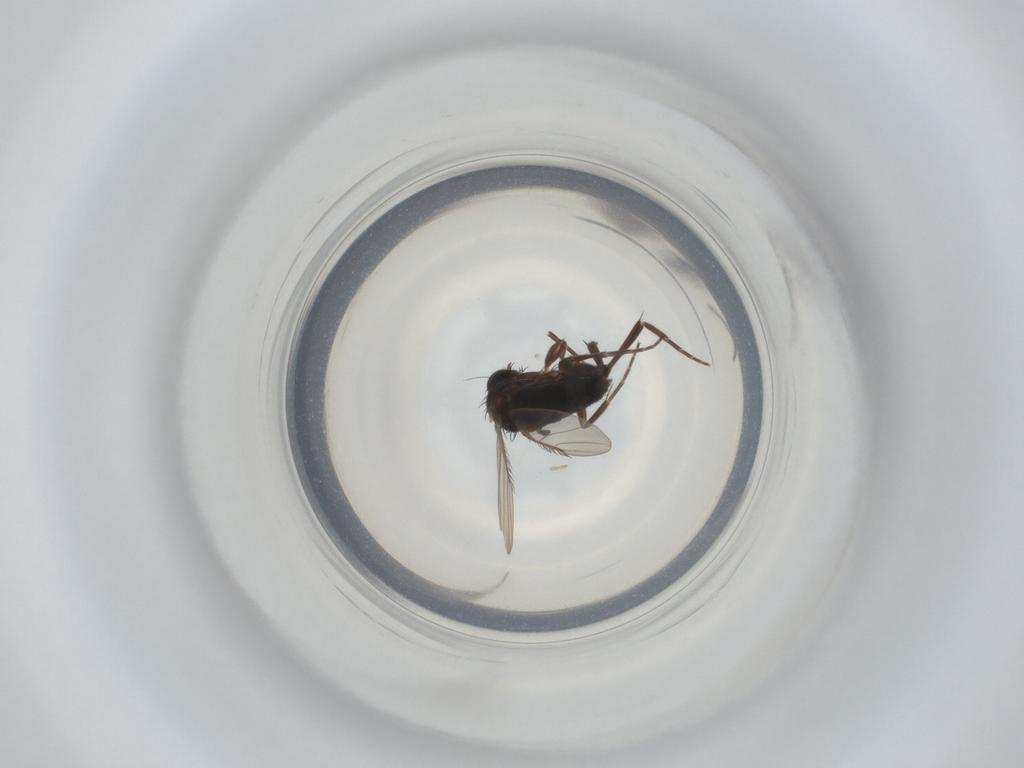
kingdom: Animalia
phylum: Arthropoda
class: Insecta
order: Diptera
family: Phoridae
